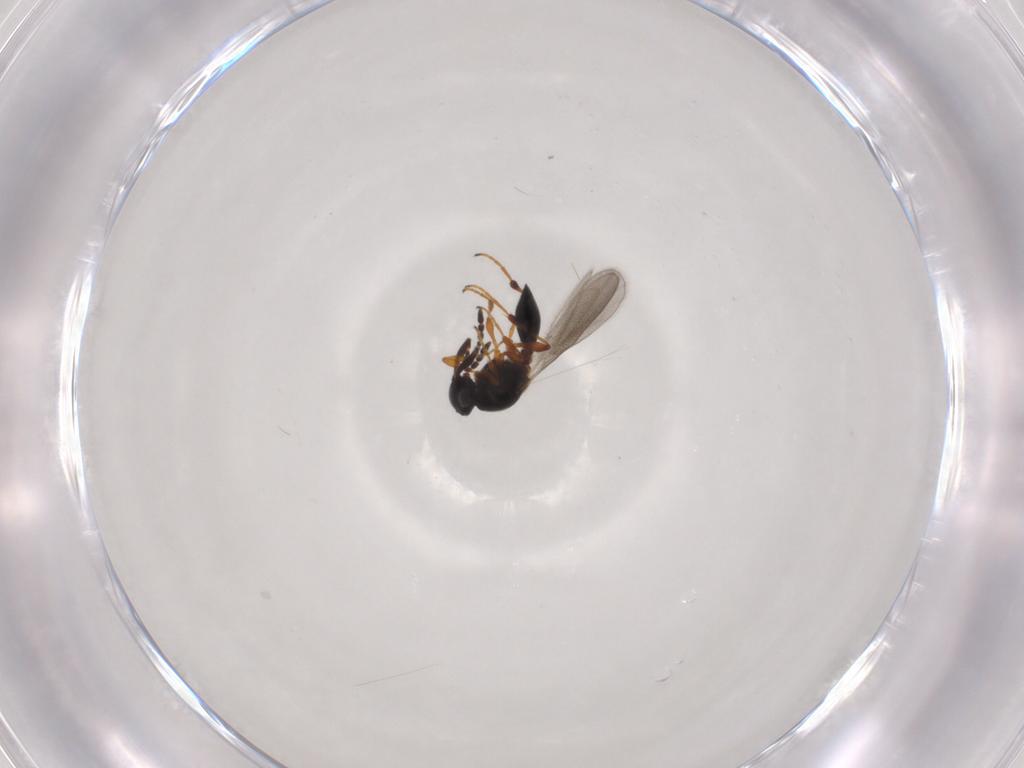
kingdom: Animalia
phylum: Arthropoda
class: Insecta
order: Hymenoptera
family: Platygastridae
